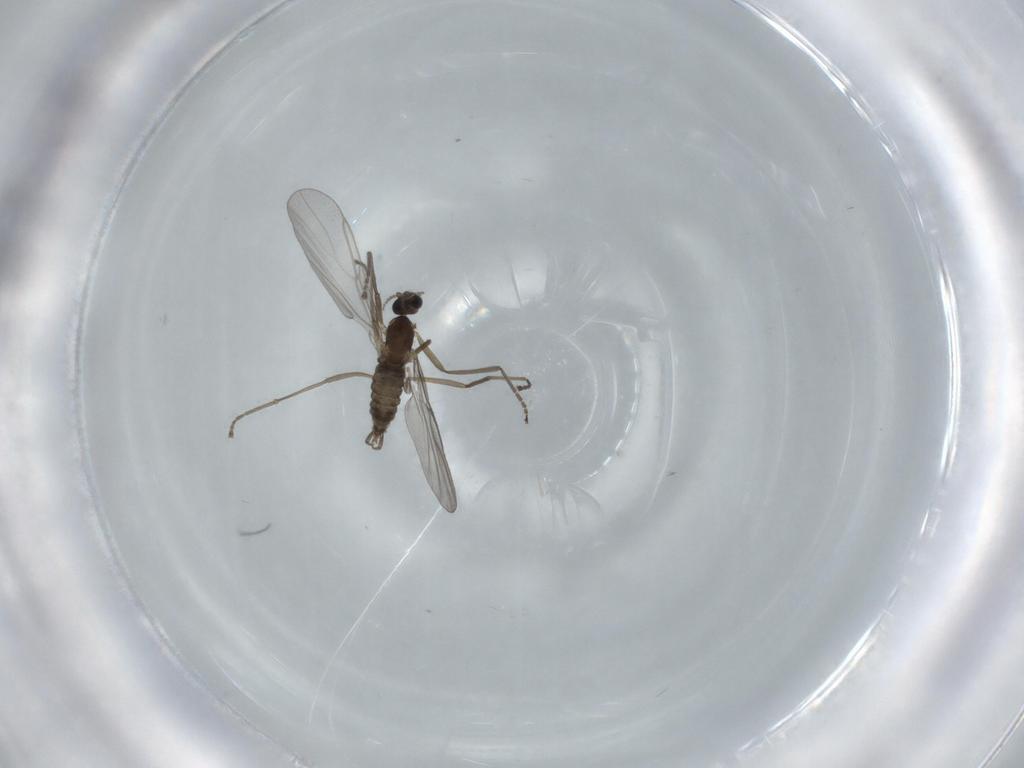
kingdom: Animalia
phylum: Arthropoda
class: Insecta
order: Diptera
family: Cecidomyiidae
